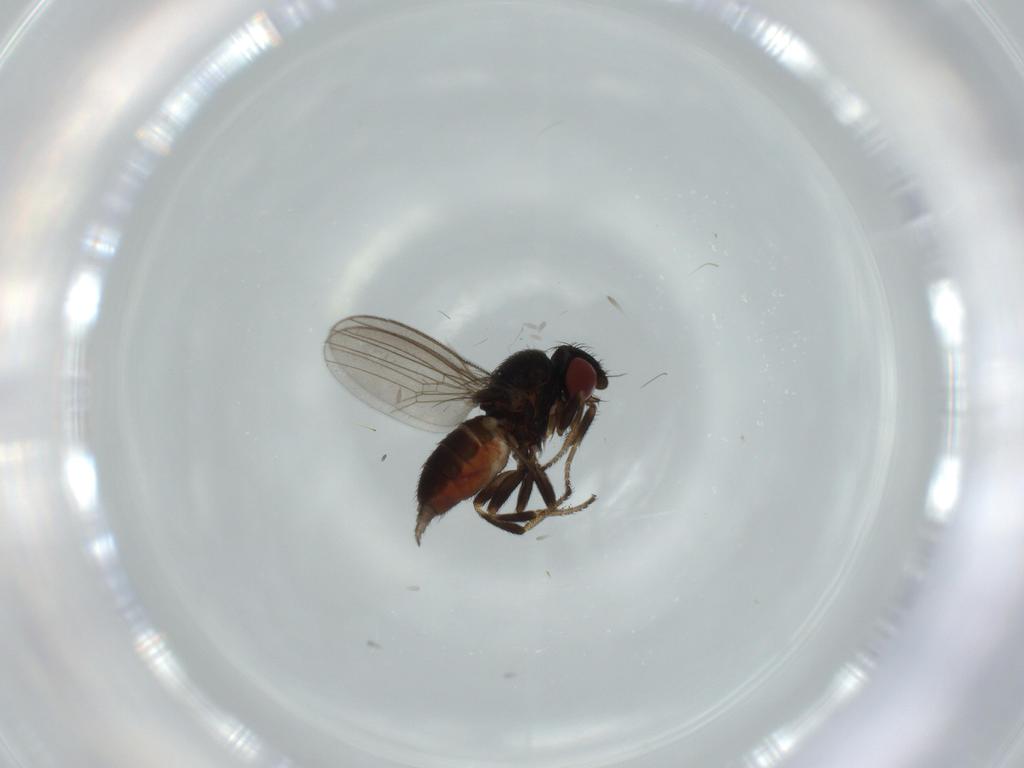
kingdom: Animalia
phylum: Arthropoda
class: Insecta
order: Diptera
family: Milichiidae
